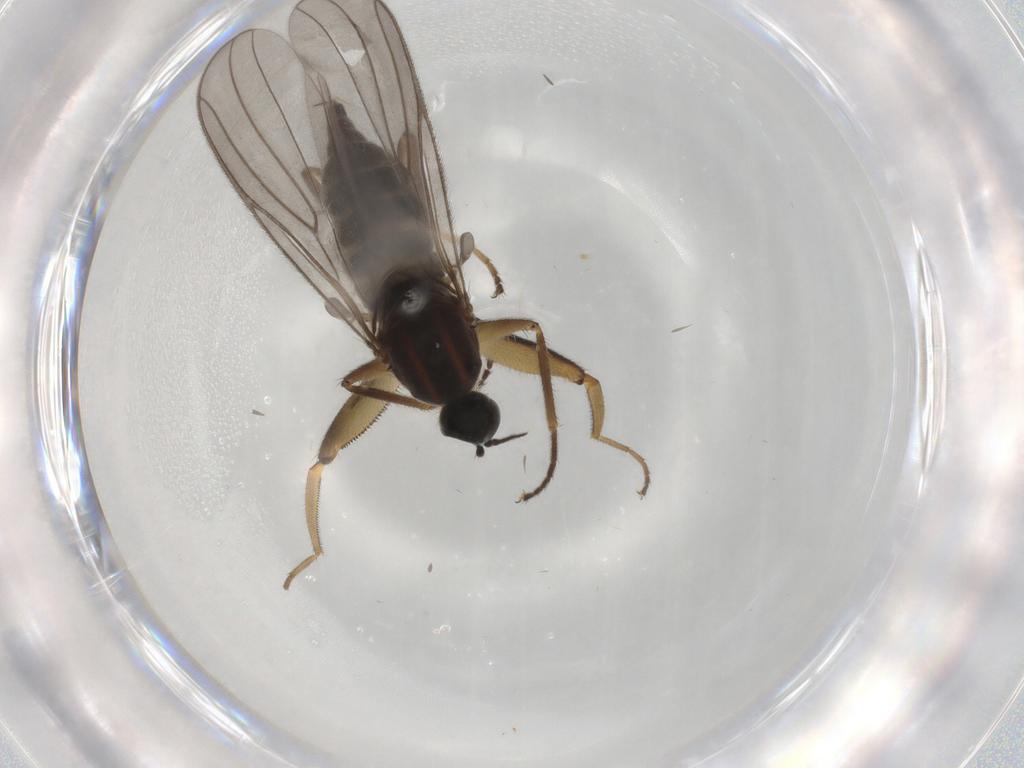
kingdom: Animalia
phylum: Arthropoda
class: Insecta
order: Diptera
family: Hybotidae
